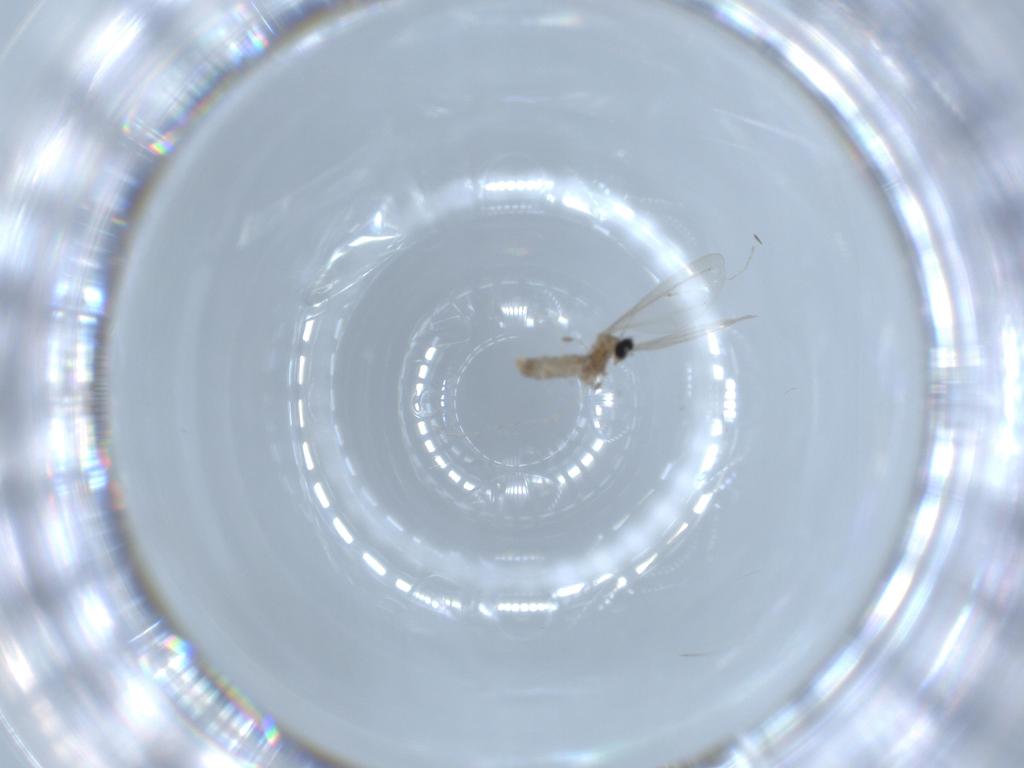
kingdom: Animalia
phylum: Arthropoda
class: Insecta
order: Diptera
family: Cecidomyiidae
